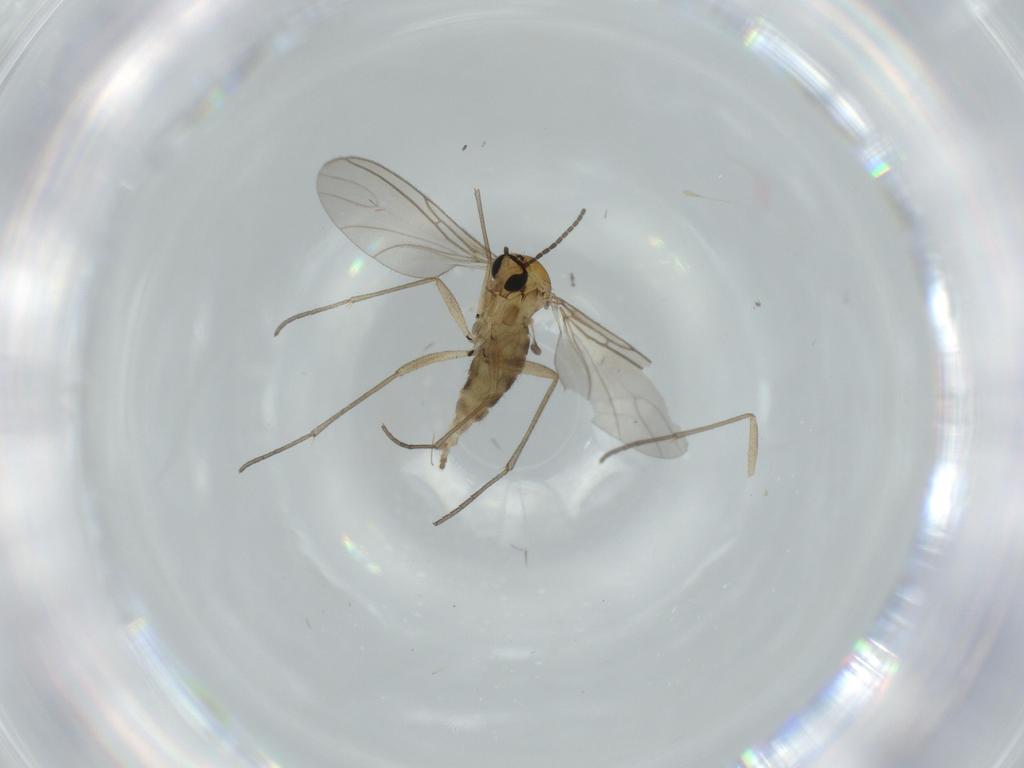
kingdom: Animalia
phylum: Arthropoda
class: Insecta
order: Diptera
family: Sciaridae
